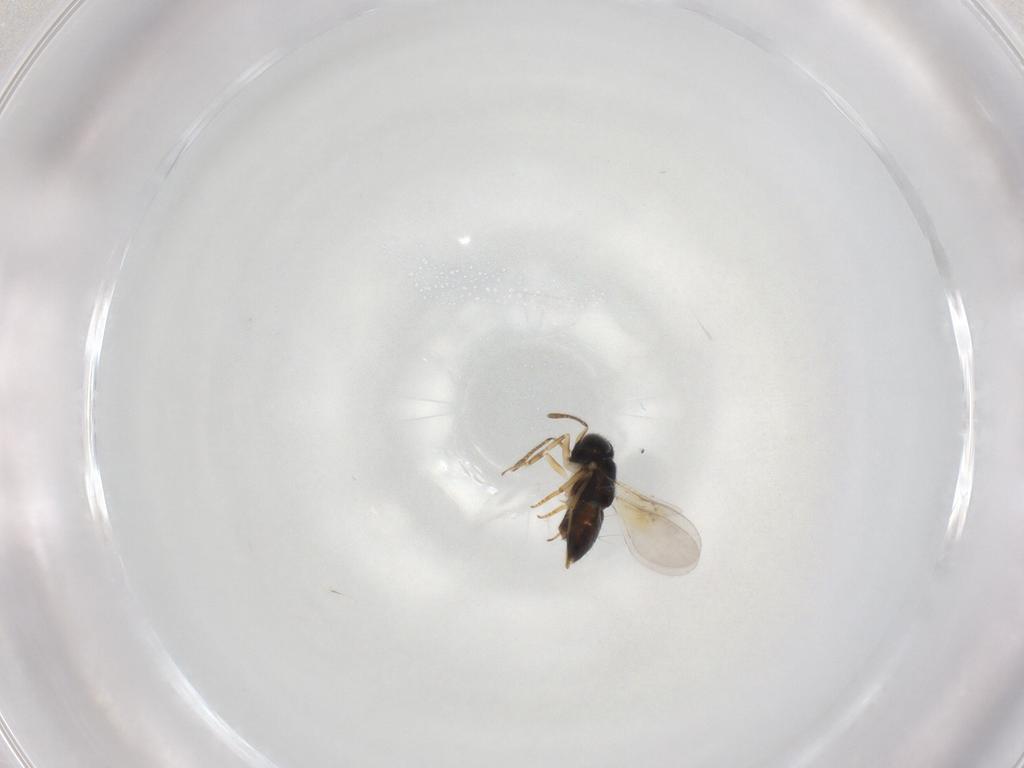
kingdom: Animalia
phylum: Arthropoda
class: Insecta
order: Hymenoptera
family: Encyrtidae
